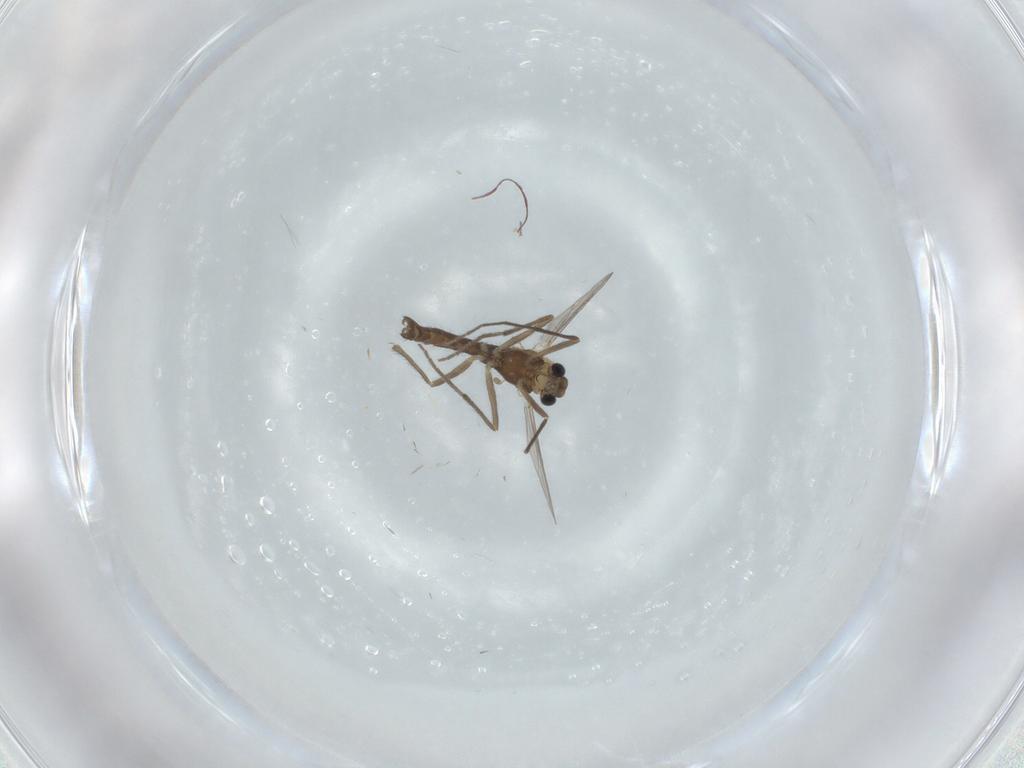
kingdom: Animalia
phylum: Arthropoda
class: Insecta
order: Diptera
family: Chironomidae
